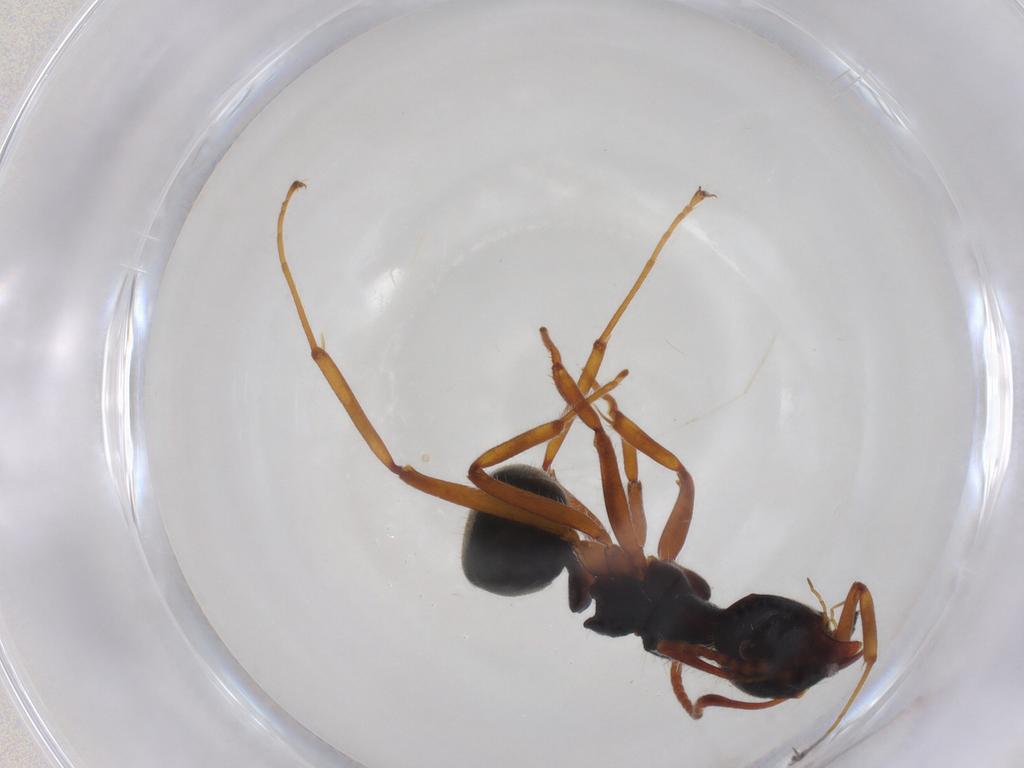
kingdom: Animalia
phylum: Arthropoda
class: Insecta
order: Hymenoptera
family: Formicidae
